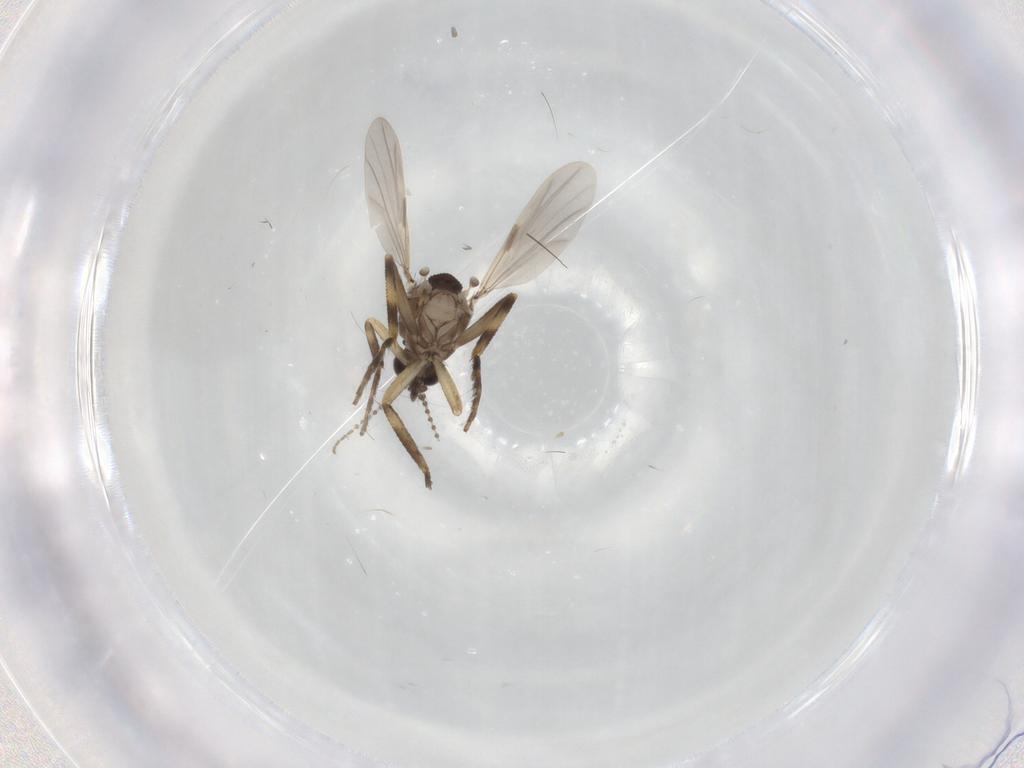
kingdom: Animalia
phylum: Arthropoda
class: Insecta
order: Diptera
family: Ceratopogonidae
